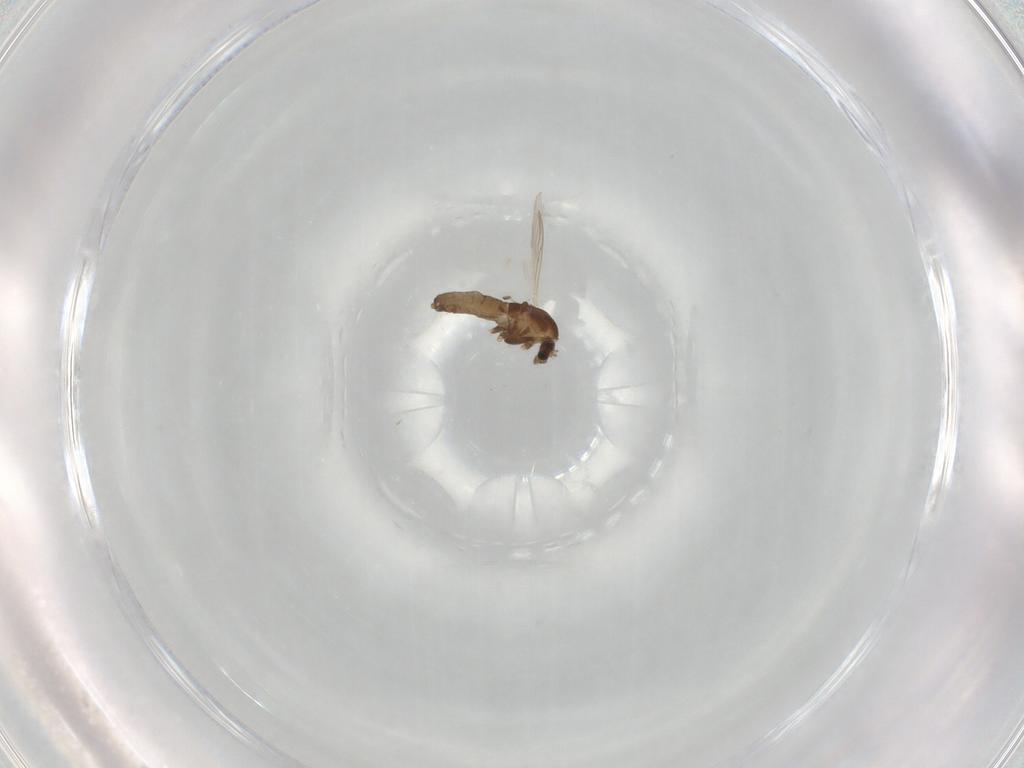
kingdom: Animalia
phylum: Arthropoda
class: Insecta
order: Diptera
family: Chironomidae
